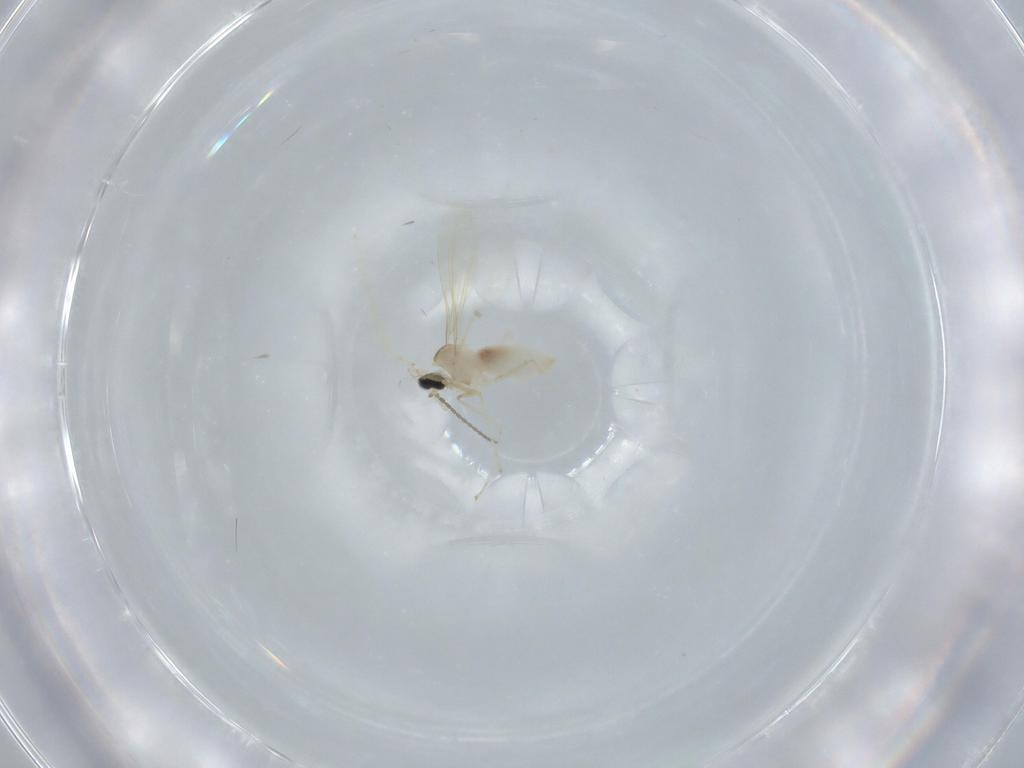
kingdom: Animalia
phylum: Arthropoda
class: Insecta
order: Diptera
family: Cecidomyiidae
